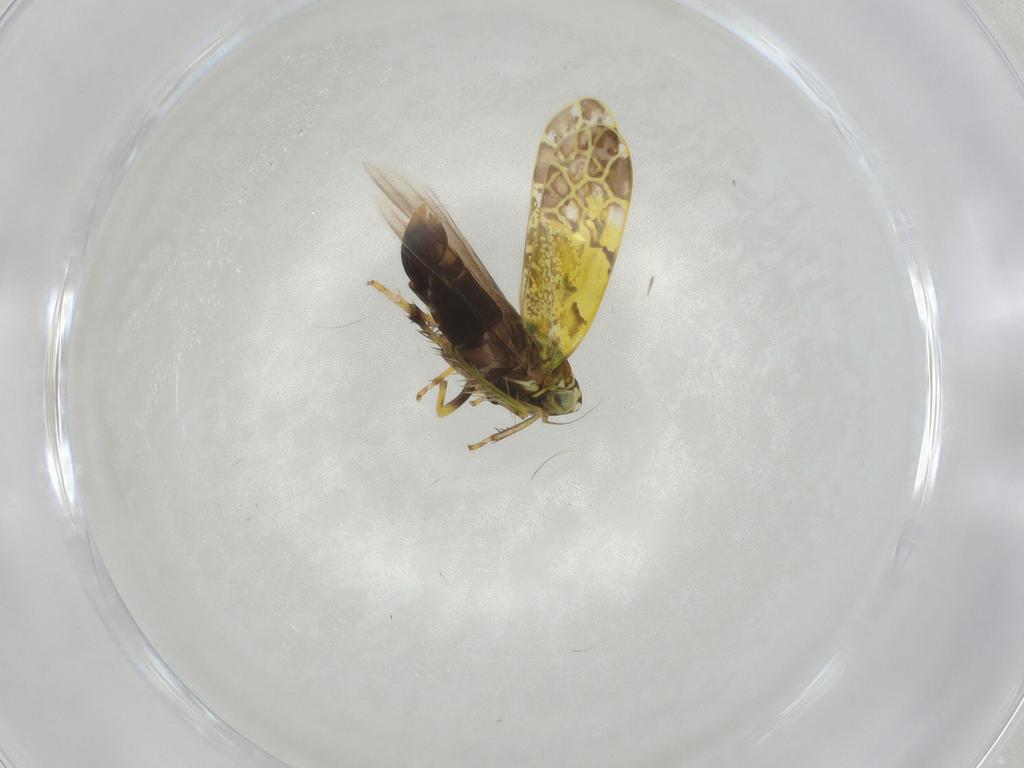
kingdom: Animalia
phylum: Arthropoda
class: Insecta
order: Hemiptera
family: Cicadellidae
